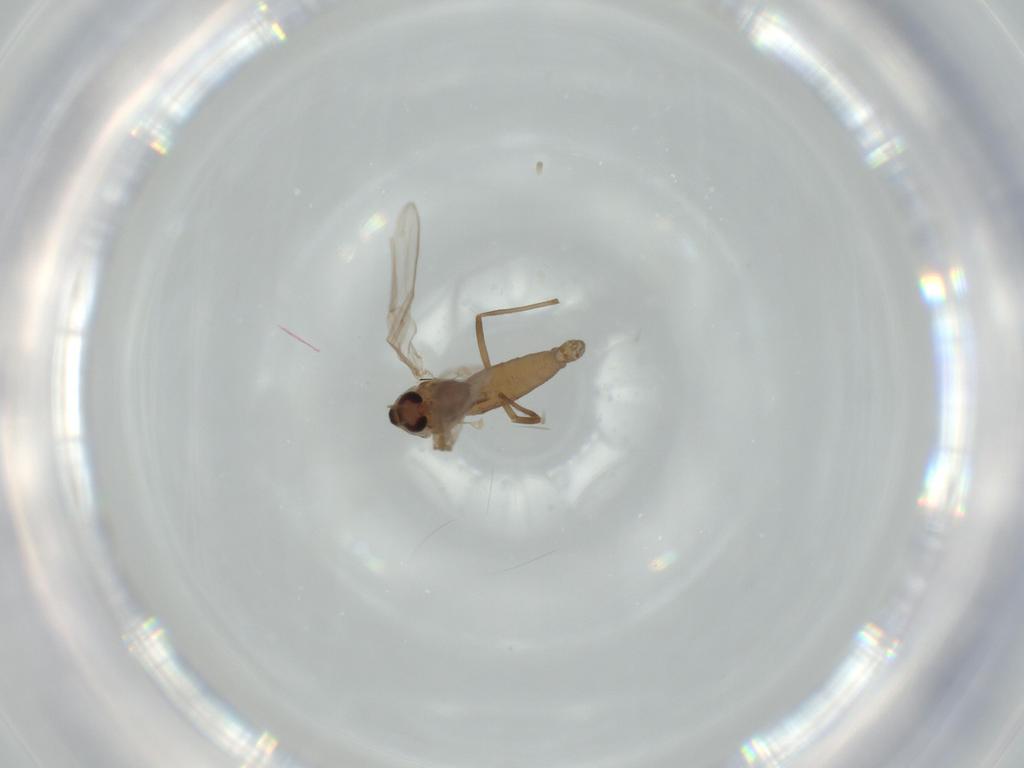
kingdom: Animalia
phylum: Arthropoda
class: Insecta
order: Diptera
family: Chironomidae
